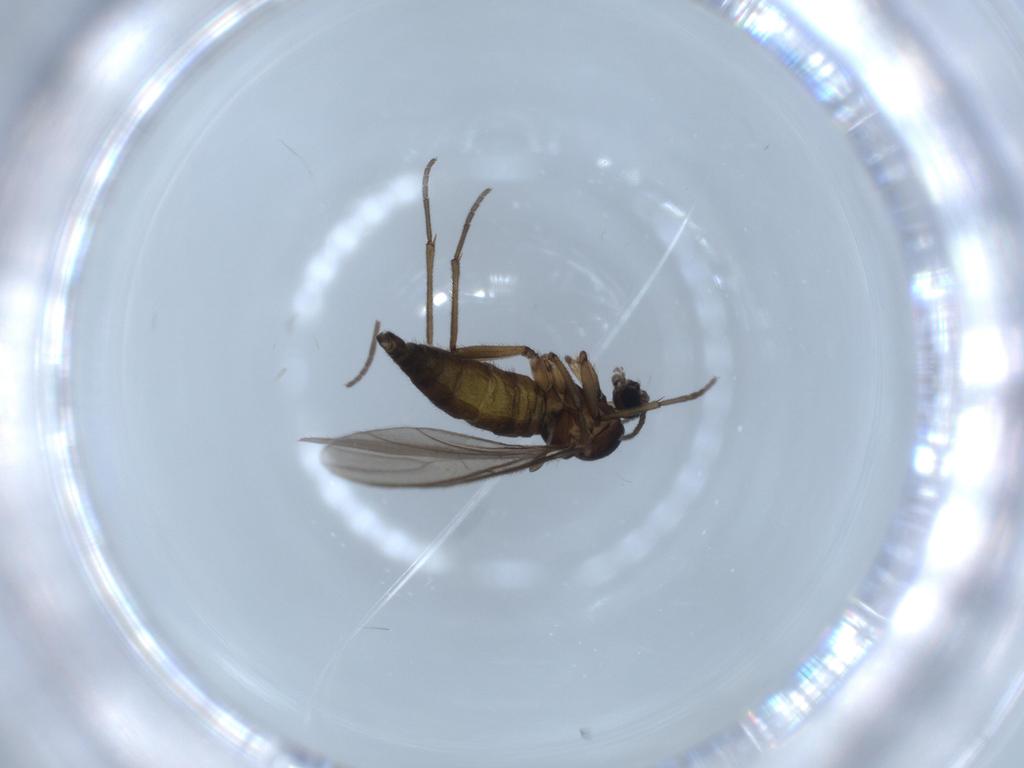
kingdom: Animalia
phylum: Arthropoda
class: Insecta
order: Diptera
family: Sciaridae
